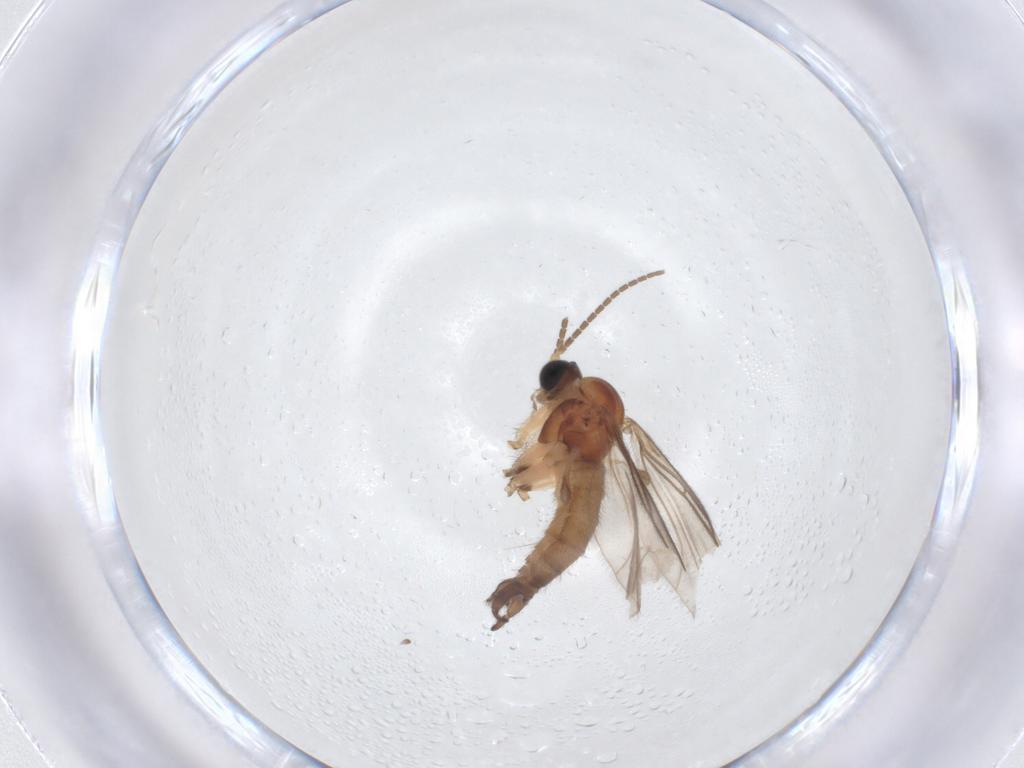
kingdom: Animalia
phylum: Arthropoda
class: Insecta
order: Diptera
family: Sciaridae
